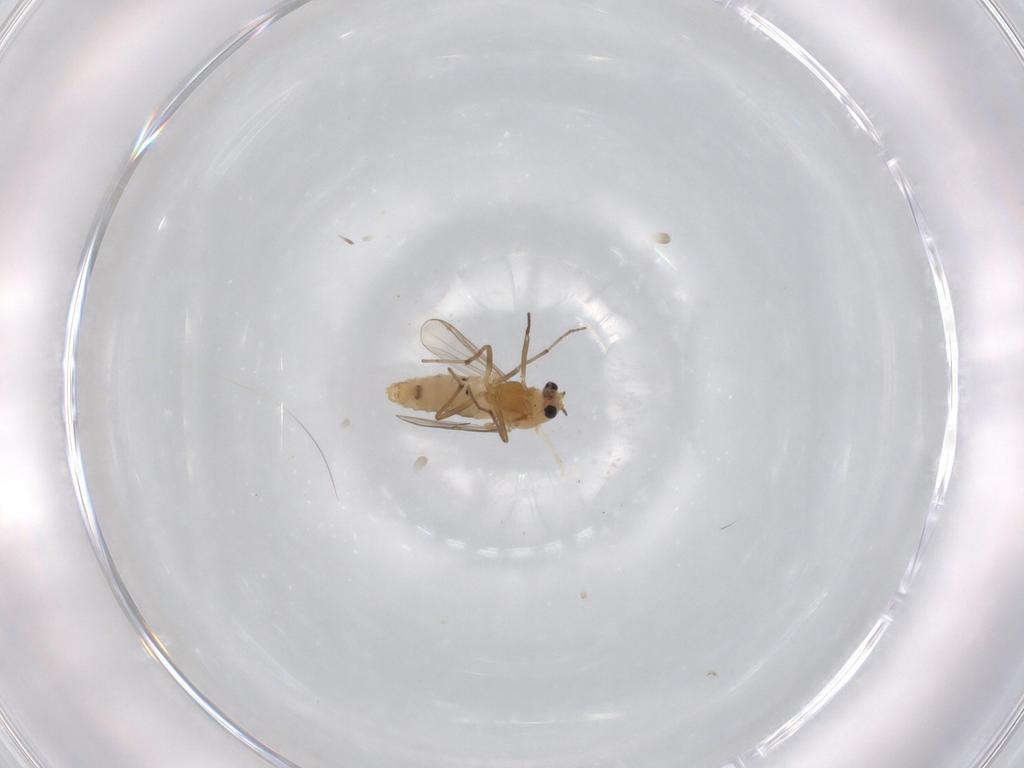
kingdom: Animalia
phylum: Arthropoda
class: Insecta
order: Diptera
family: Chironomidae
